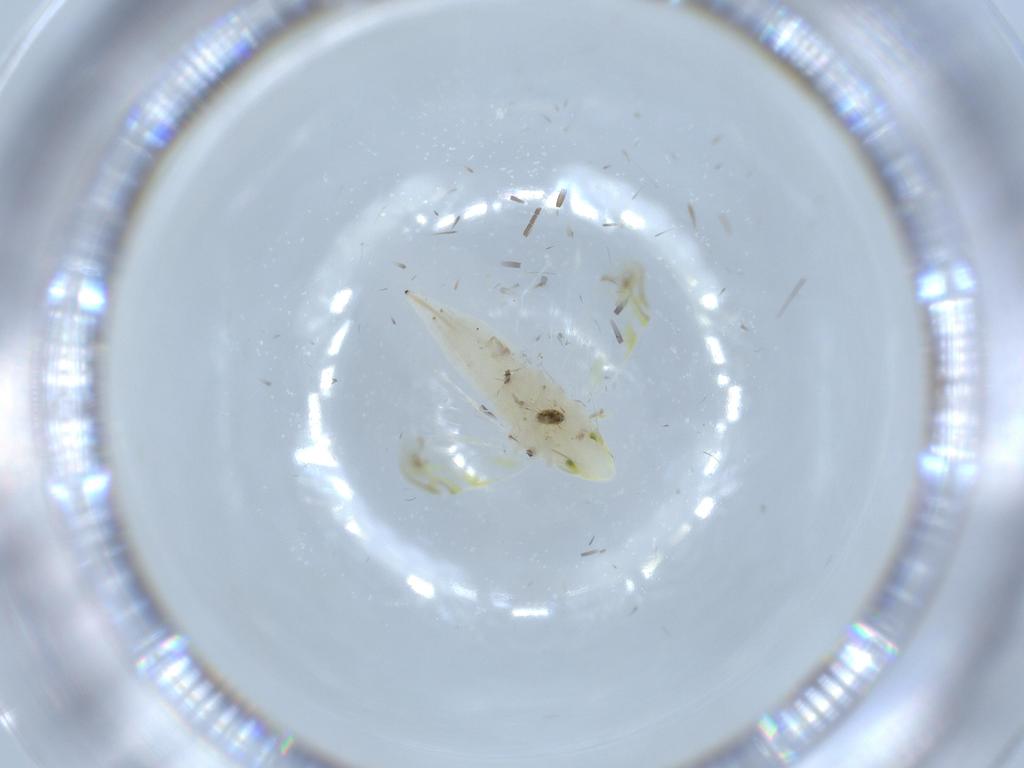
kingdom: Animalia
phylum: Arthropoda
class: Insecta
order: Hemiptera
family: Cicadellidae
